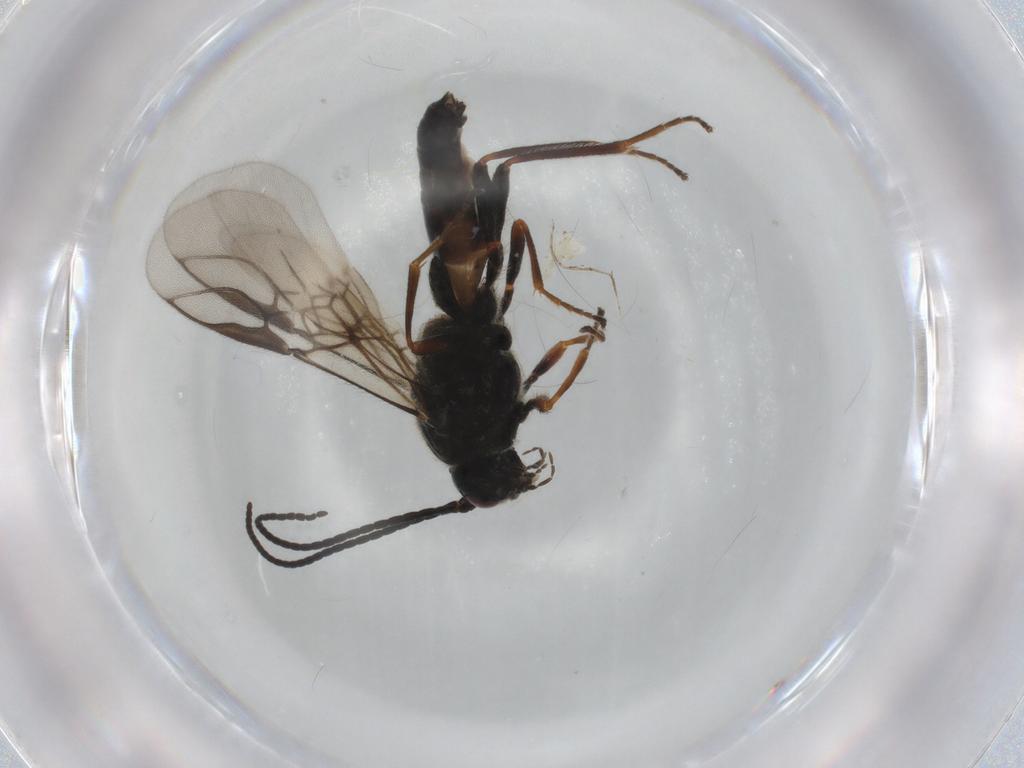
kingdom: Animalia
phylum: Arthropoda
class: Insecta
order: Hymenoptera
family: Braconidae
